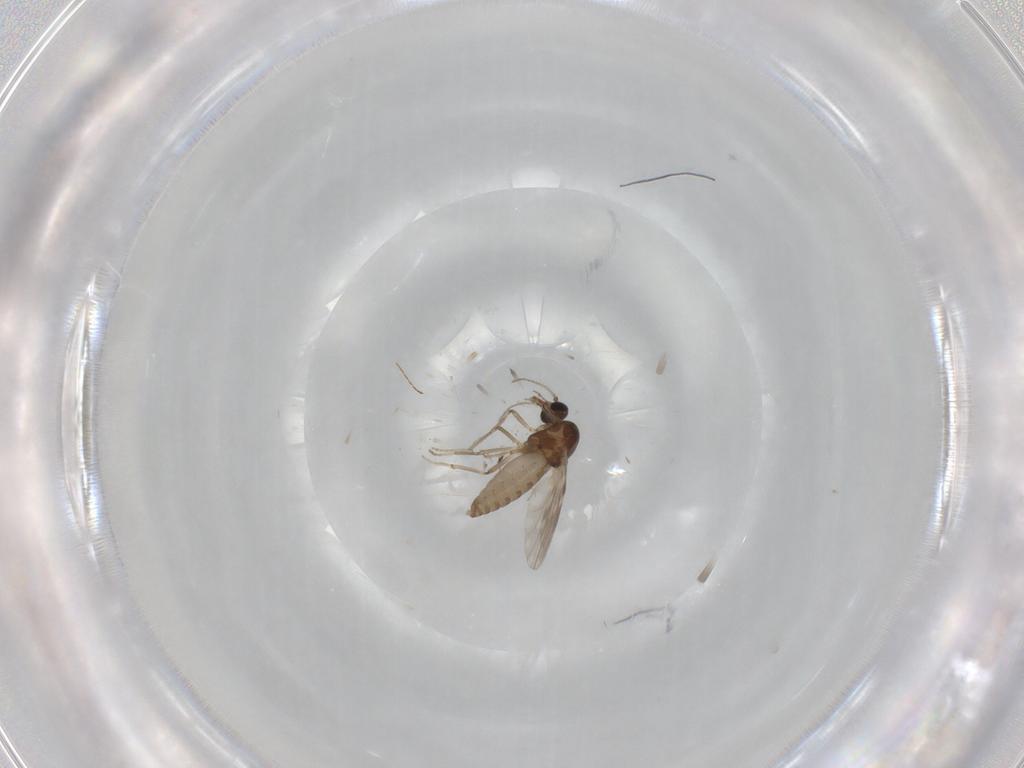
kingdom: Animalia
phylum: Arthropoda
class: Insecta
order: Diptera
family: Ceratopogonidae
